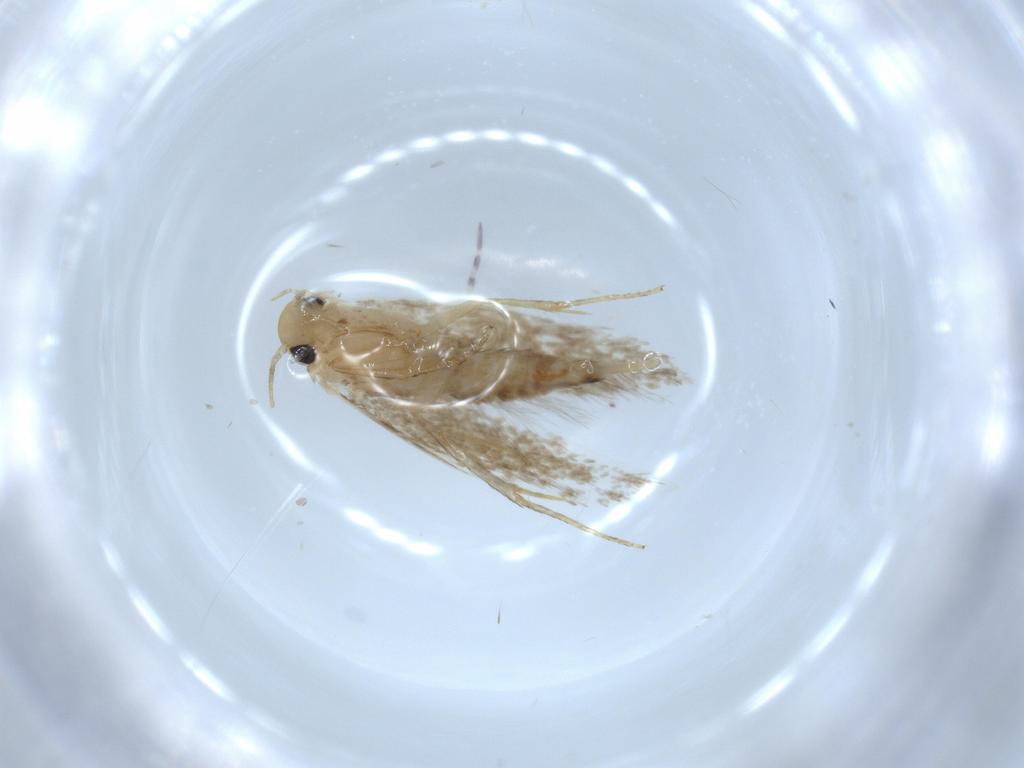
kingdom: Animalia
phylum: Arthropoda
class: Insecta
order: Lepidoptera
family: Tineidae
